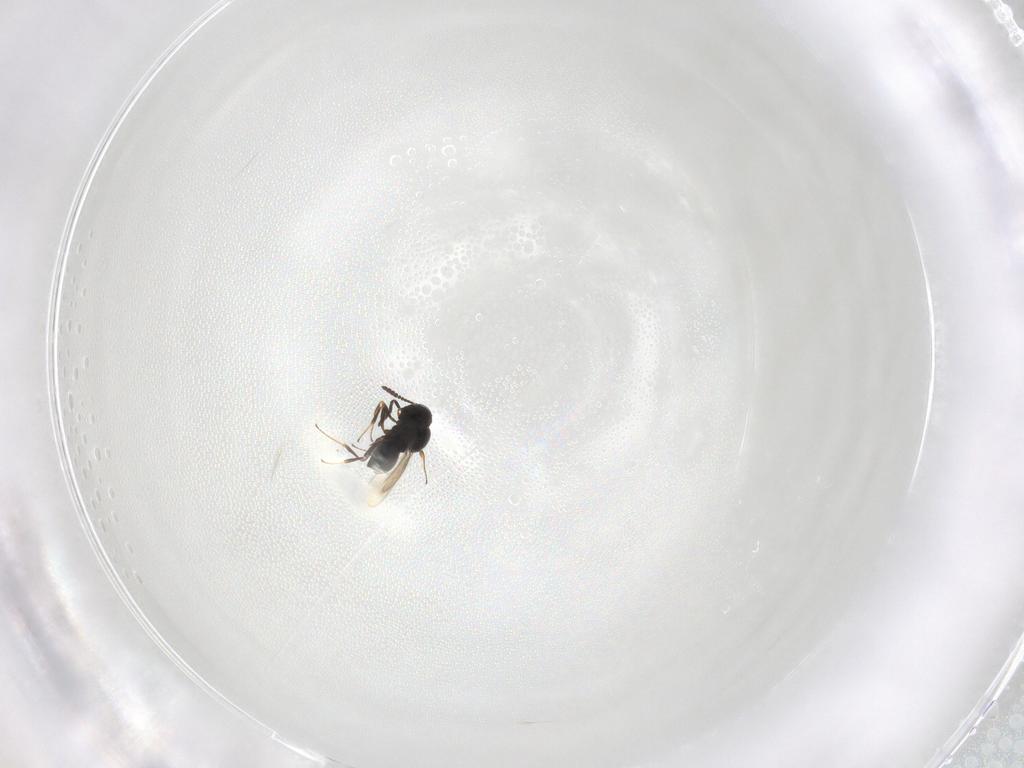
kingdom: Animalia
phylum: Arthropoda
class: Insecta
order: Hymenoptera
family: Scelionidae
